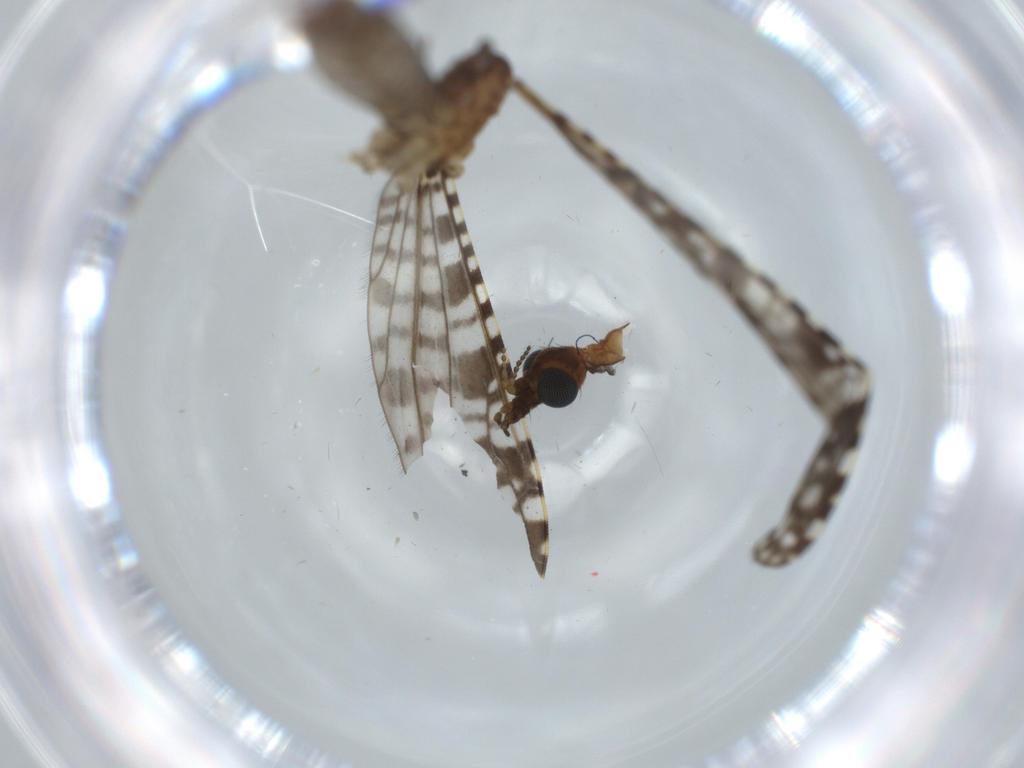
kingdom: Animalia
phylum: Arthropoda
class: Insecta
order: Diptera
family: Sciaridae
